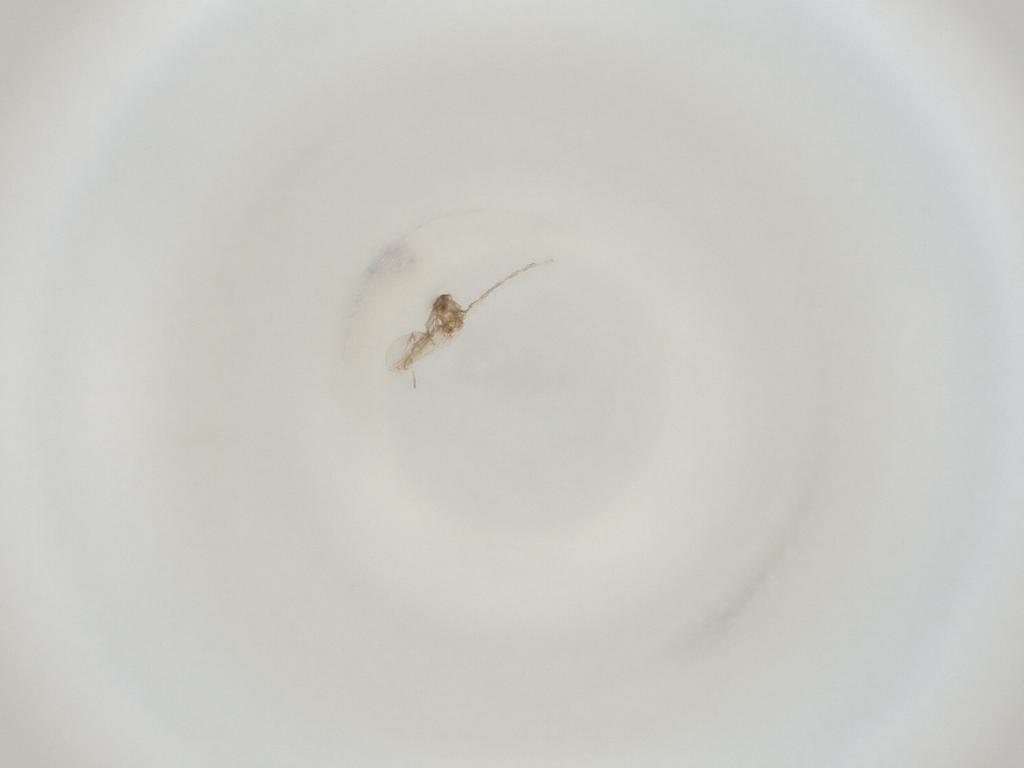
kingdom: Animalia
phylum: Arthropoda
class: Insecta
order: Diptera
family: Cecidomyiidae
